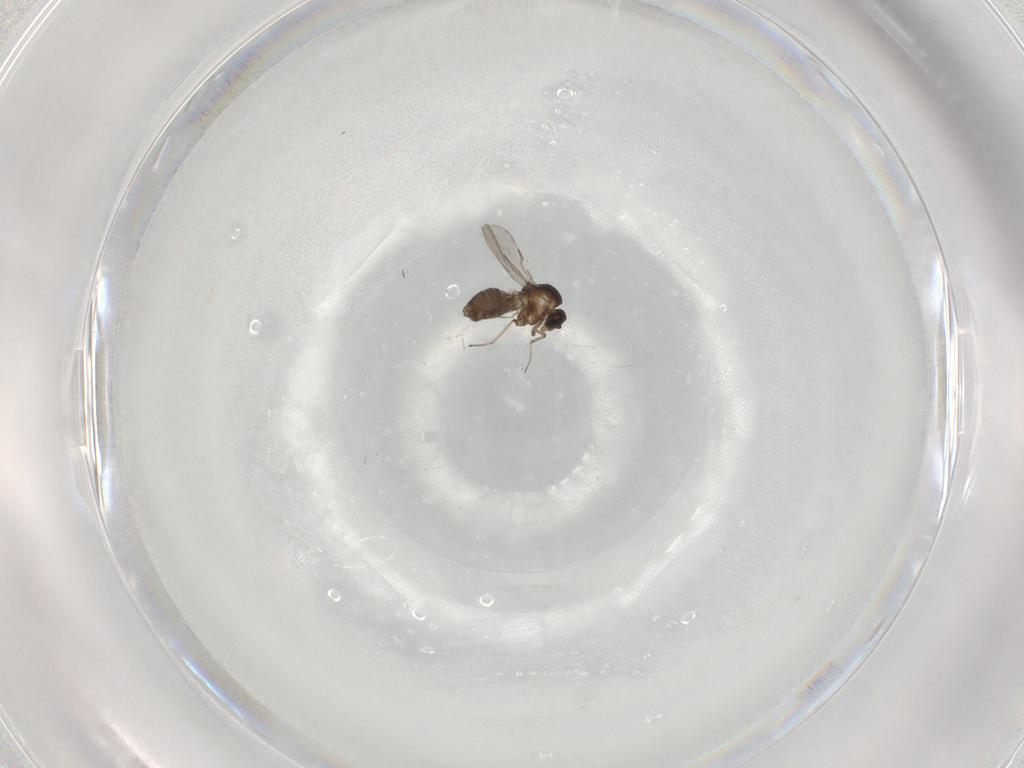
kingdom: Animalia
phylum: Arthropoda
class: Insecta
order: Diptera
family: Ceratopogonidae
